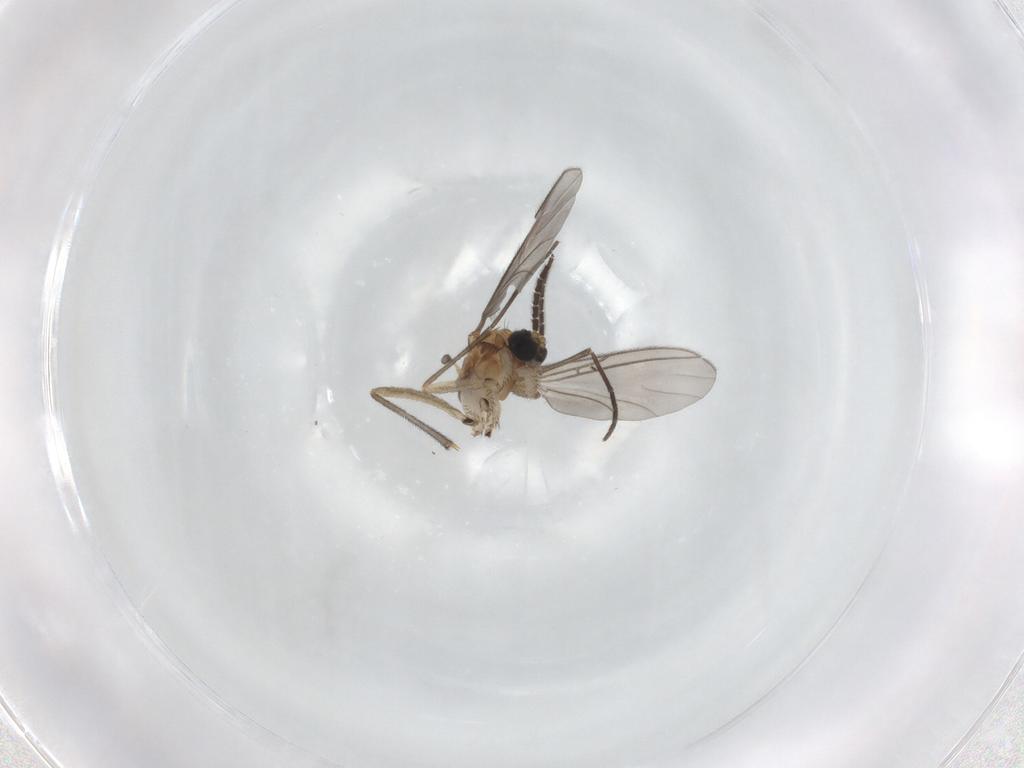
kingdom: Animalia
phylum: Arthropoda
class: Insecta
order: Diptera
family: Sciaridae
